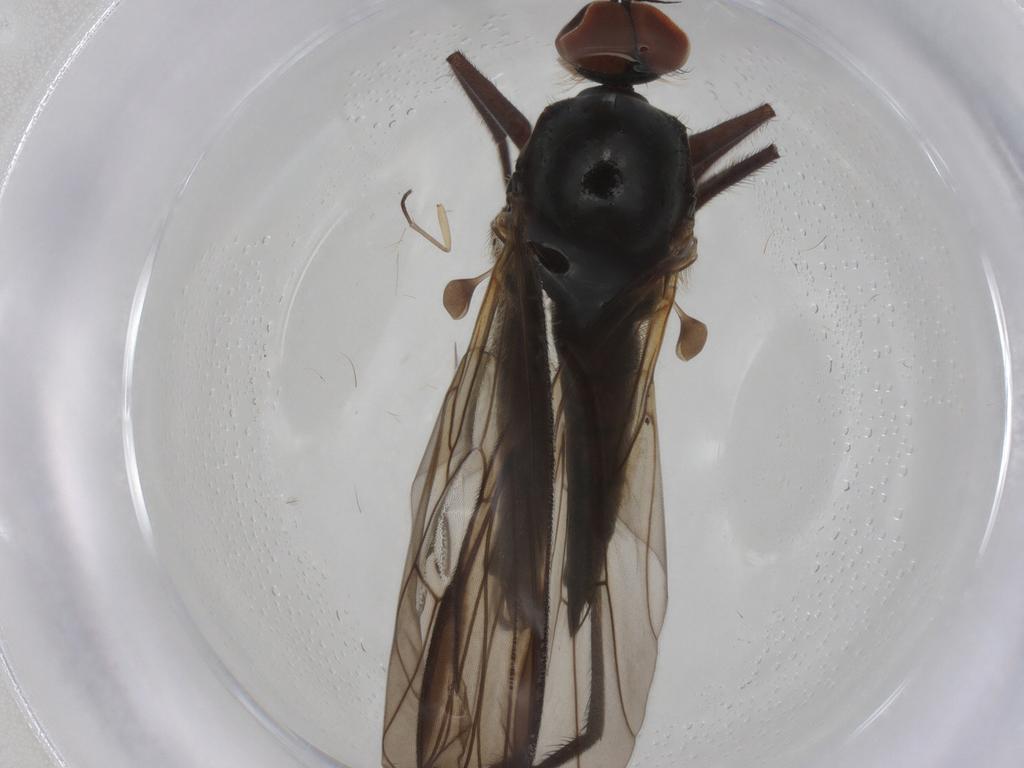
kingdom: Animalia
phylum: Arthropoda
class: Insecta
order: Diptera
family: Empididae
